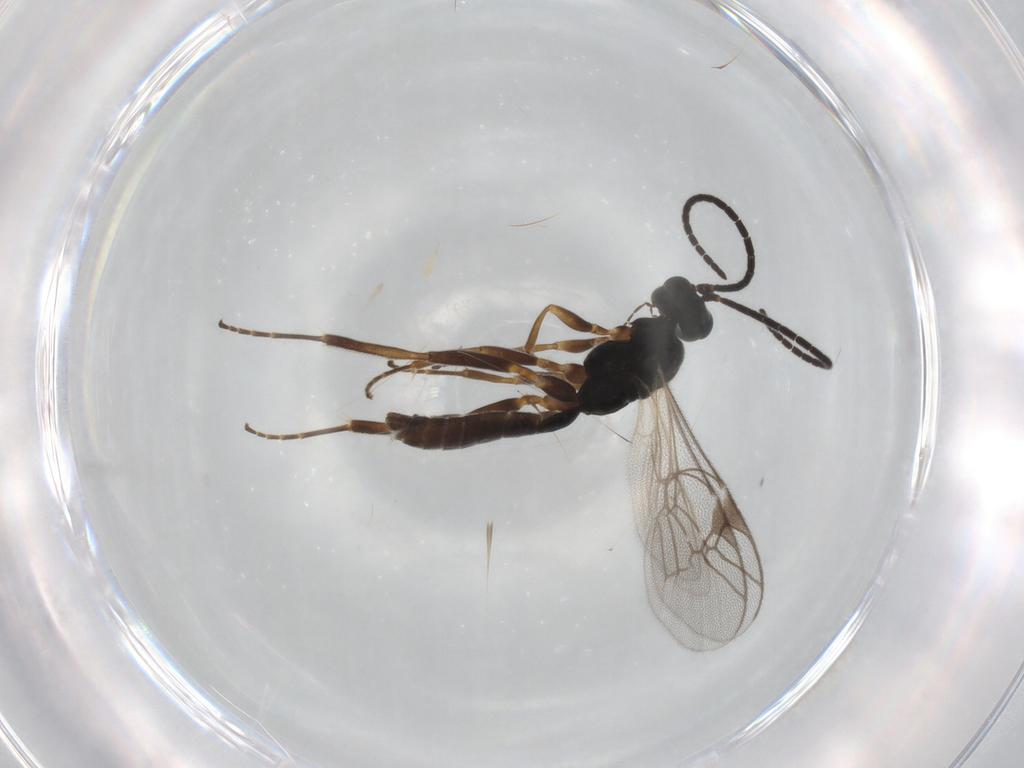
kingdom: Animalia
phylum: Arthropoda
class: Insecta
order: Hymenoptera
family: Ichneumonidae
